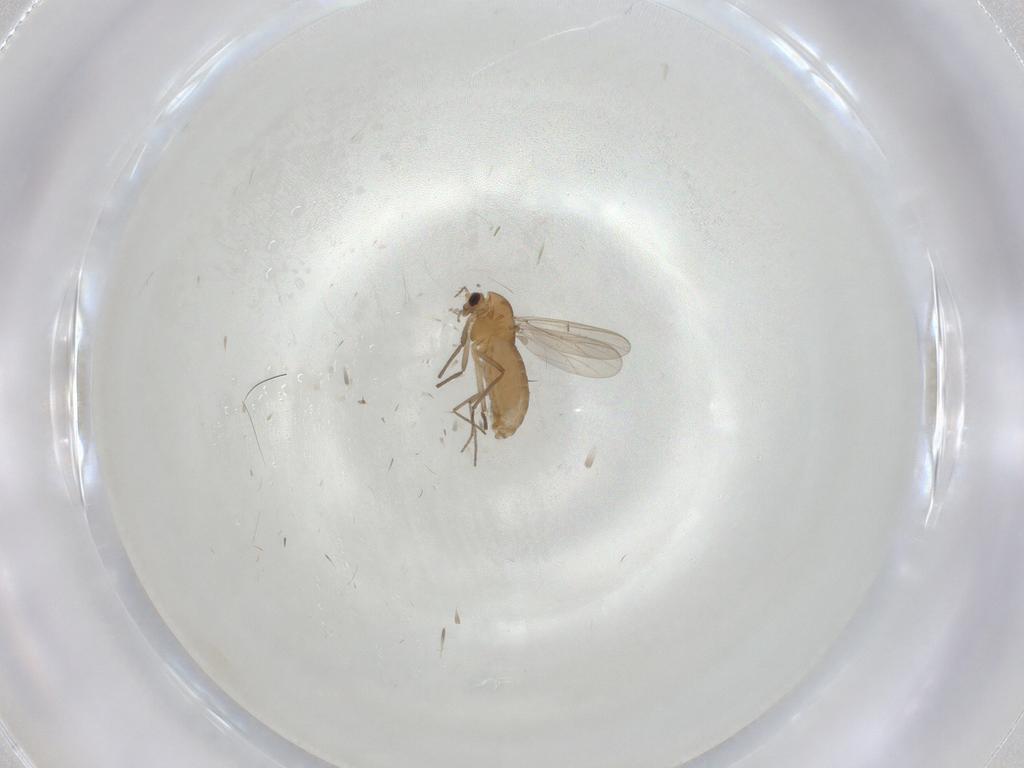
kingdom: Animalia
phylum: Arthropoda
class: Insecta
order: Diptera
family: Chironomidae
